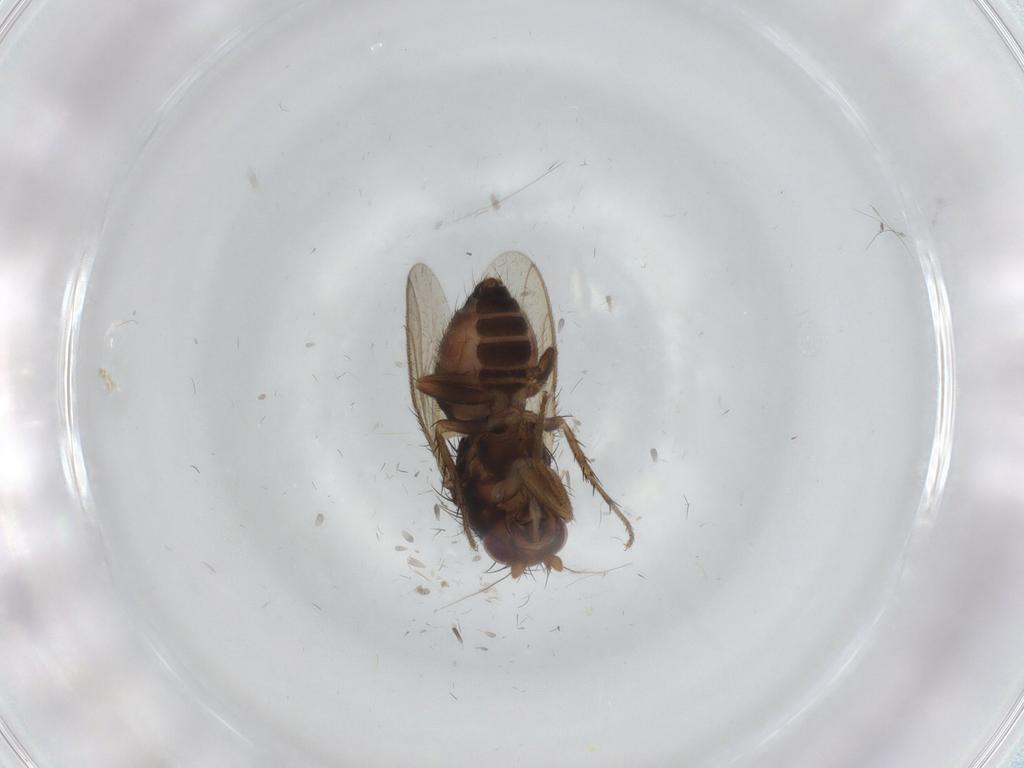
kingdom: Animalia
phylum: Arthropoda
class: Insecta
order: Diptera
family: Sphaeroceridae
